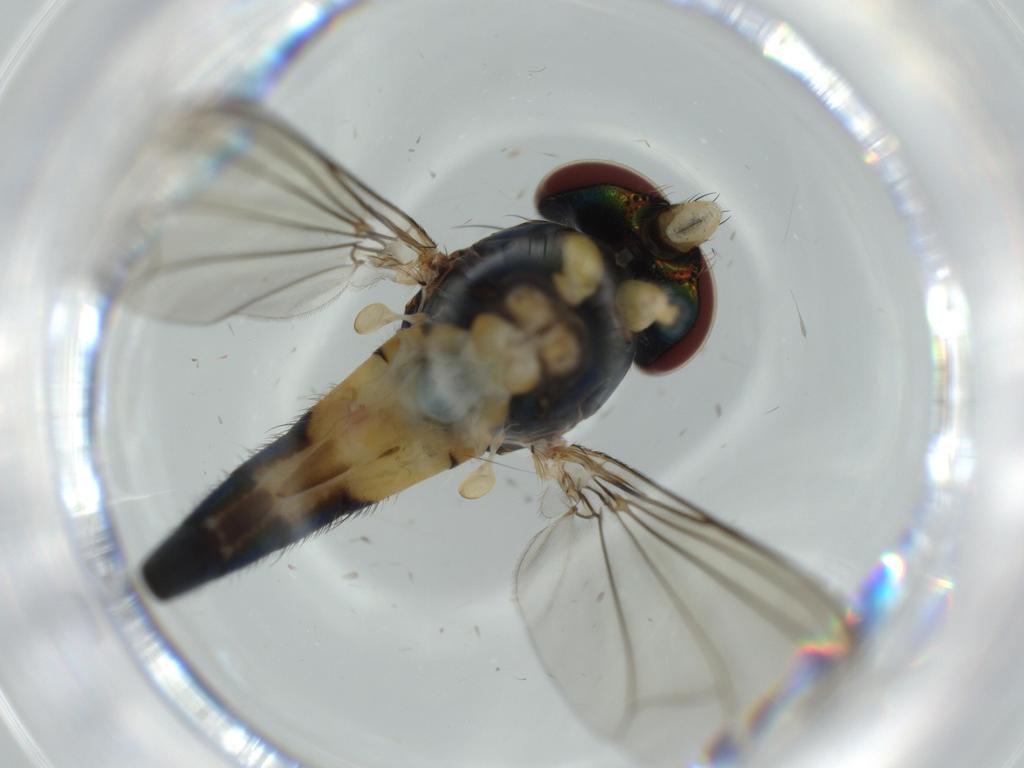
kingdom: Animalia
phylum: Arthropoda
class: Insecta
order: Diptera
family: Dolichopodidae
